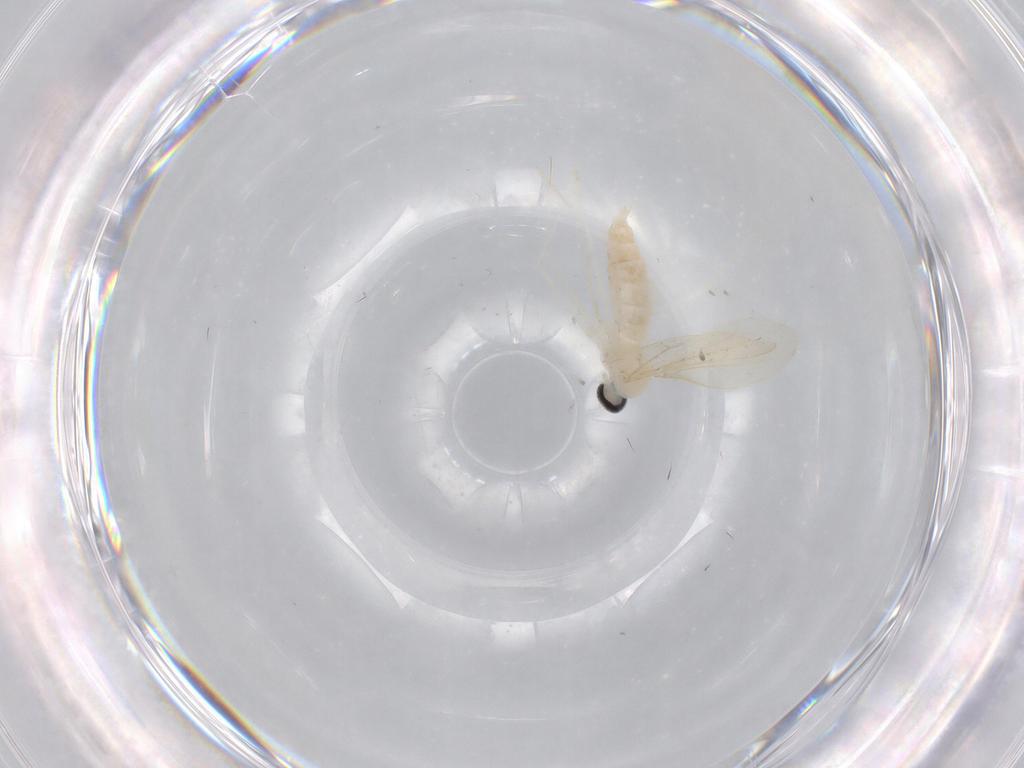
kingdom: Animalia
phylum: Arthropoda
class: Insecta
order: Diptera
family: Cecidomyiidae
